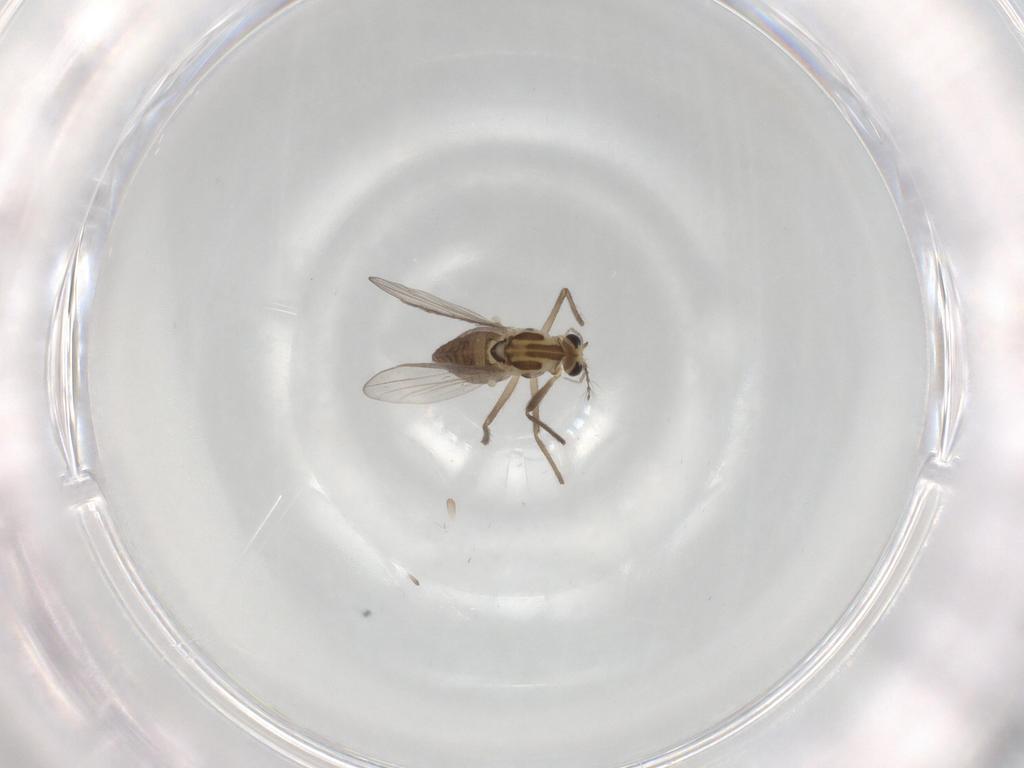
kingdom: Animalia
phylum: Arthropoda
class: Insecta
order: Diptera
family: Chironomidae
